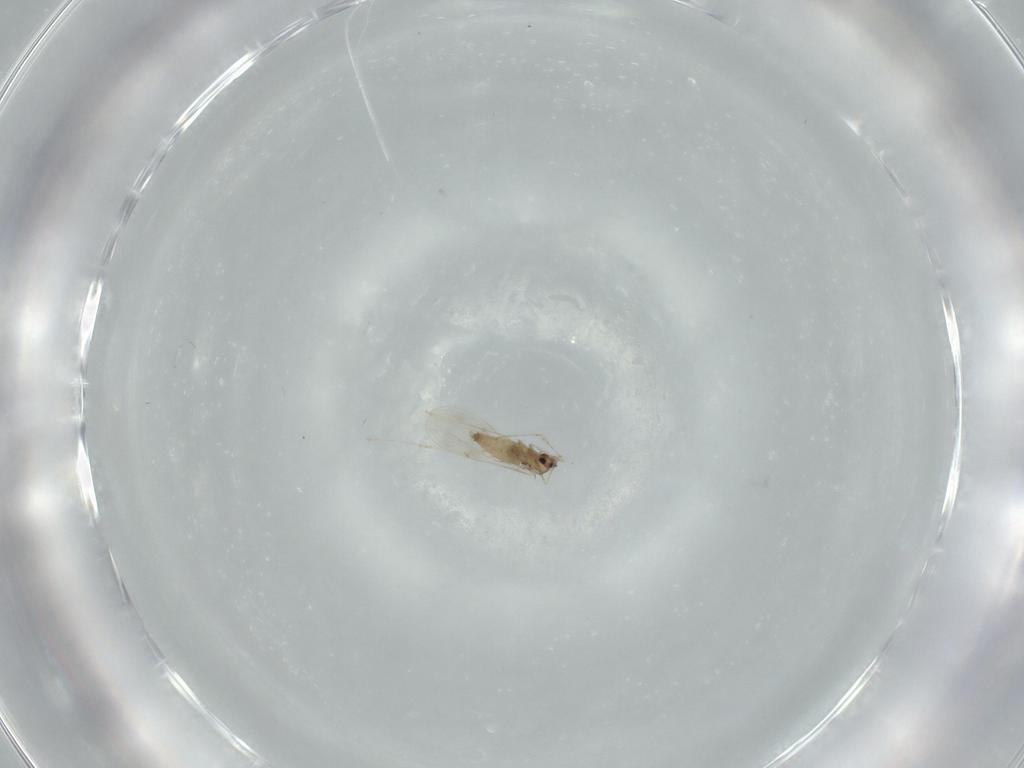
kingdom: Animalia
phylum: Arthropoda
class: Insecta
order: Diptera
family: Cecidomyiidae
